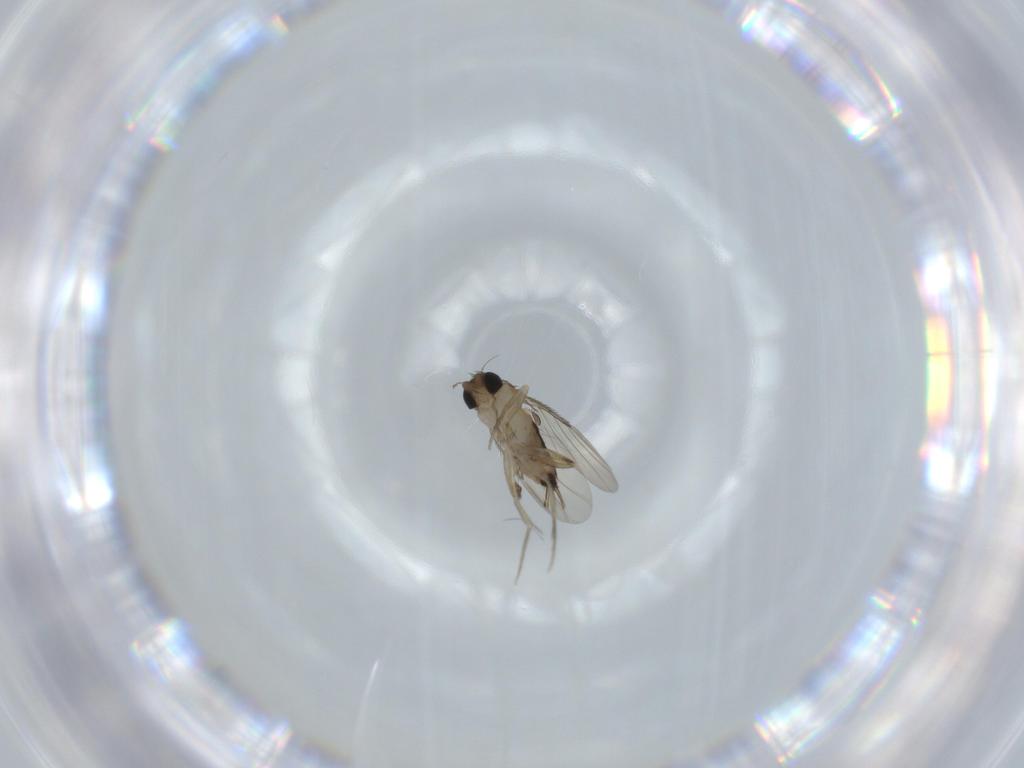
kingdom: Animalia
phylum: Arthropoda
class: Insecta
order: Diptera
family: Phoridae
